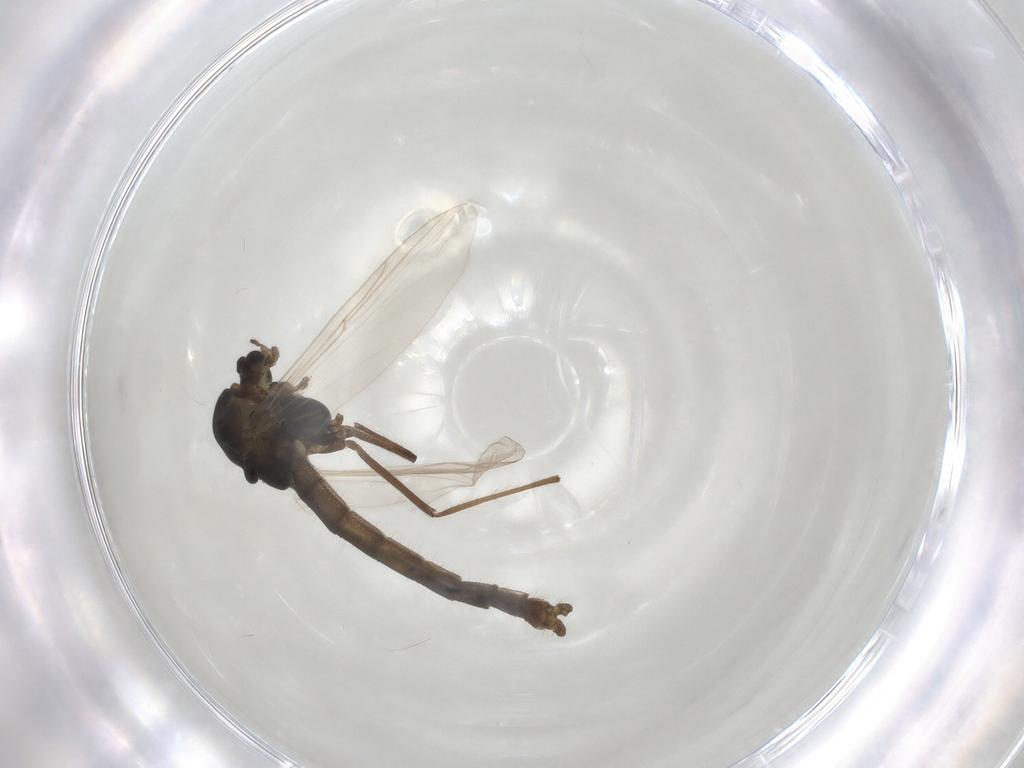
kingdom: Animalia
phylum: Arthropoda
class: Insecta
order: Diptera
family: Chironomidae
